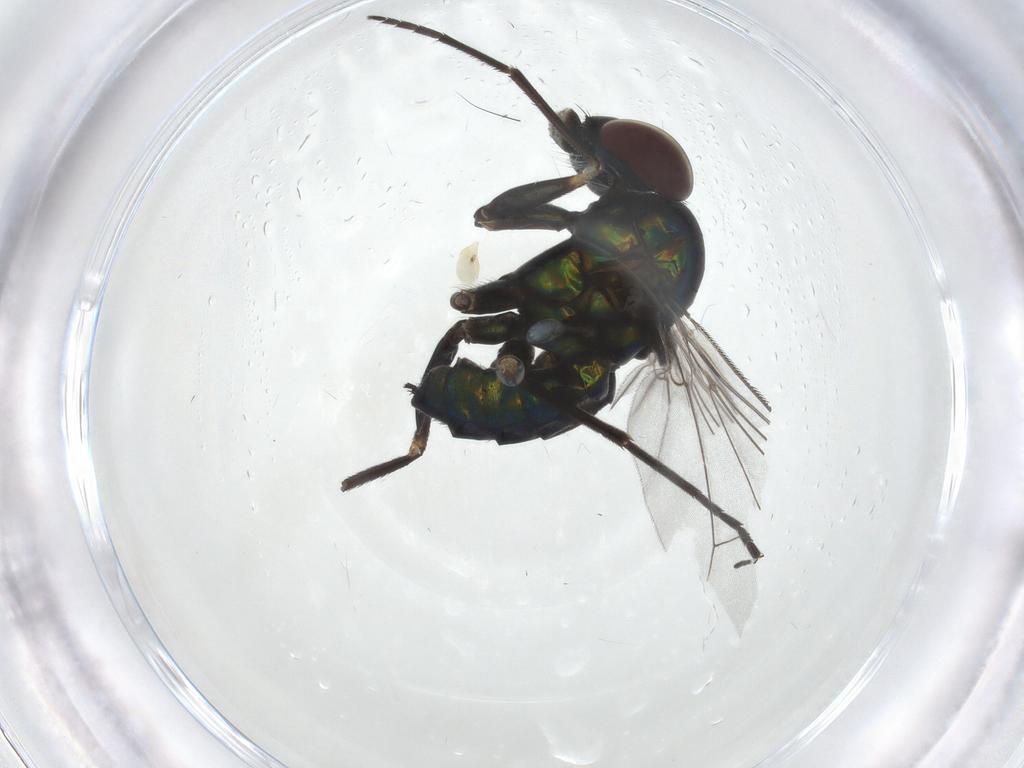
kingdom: Animalia
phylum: Arthropoda
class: Insecta
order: Diptera
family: Dolichopodidae
